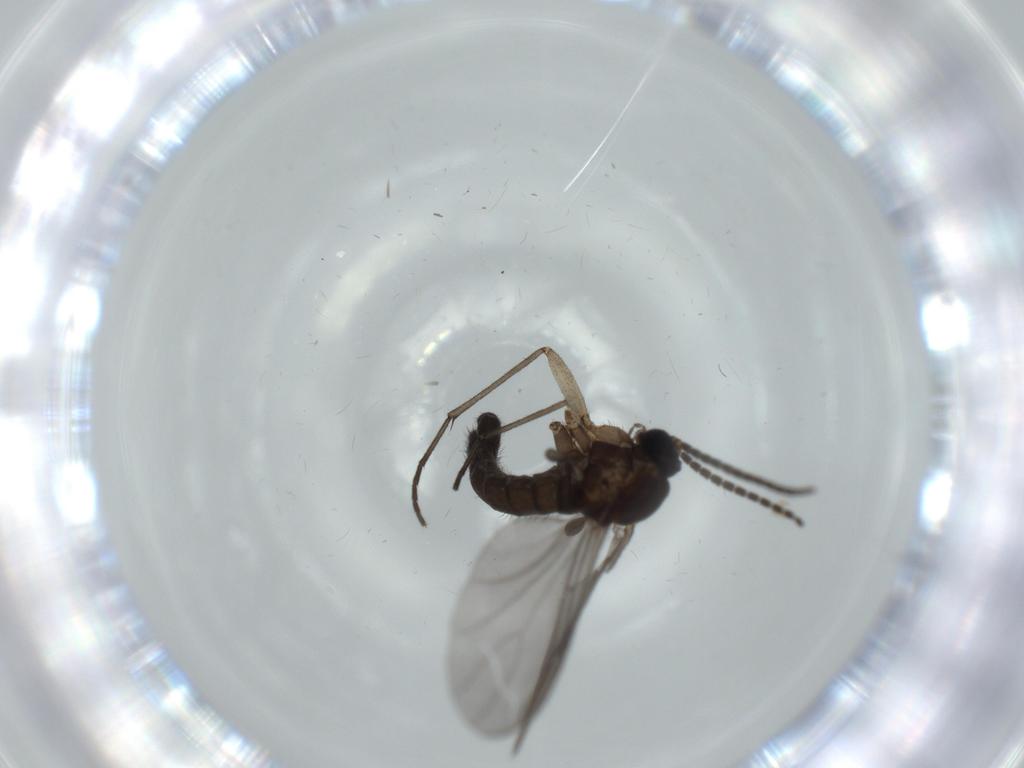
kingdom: Animalia
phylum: Arthropoda
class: Insecta
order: Diptera
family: Sciaridae
